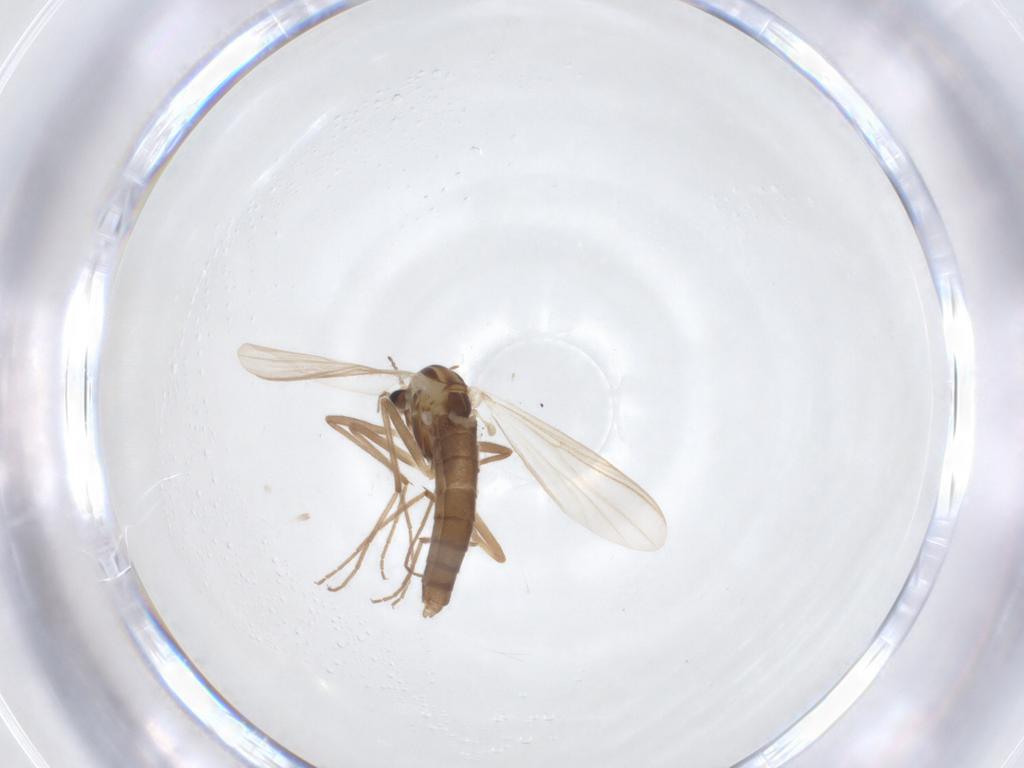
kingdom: Animalia
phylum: Arthropoda
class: Insecta
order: Diptera
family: Chironomidae
